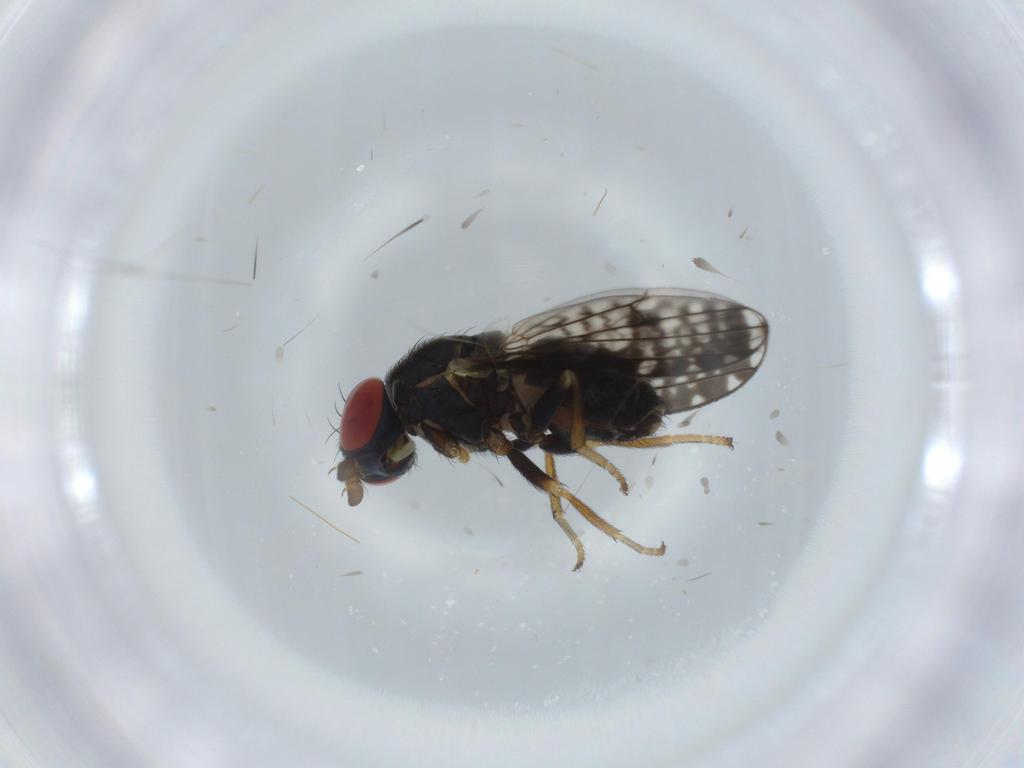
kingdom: Animalia
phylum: Arthropoda
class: Insecta
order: Diptera
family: Chamaemyiidae
